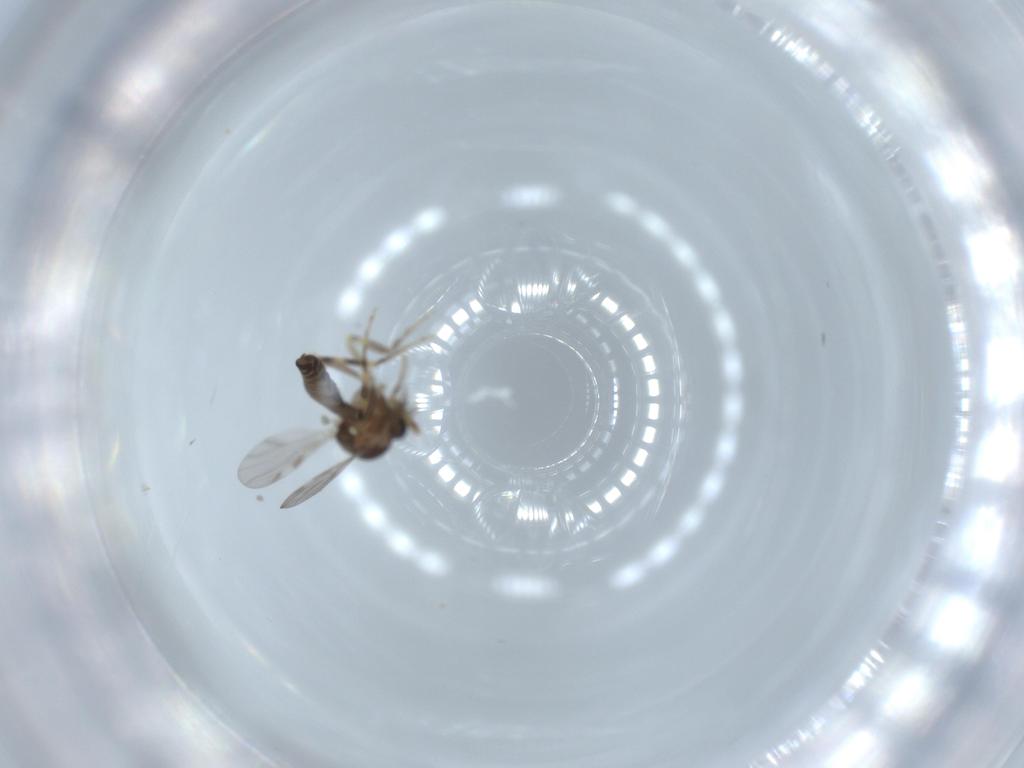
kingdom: Animalia
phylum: Arthropoda
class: Insecta
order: Diptera
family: Ceratopogonidae
